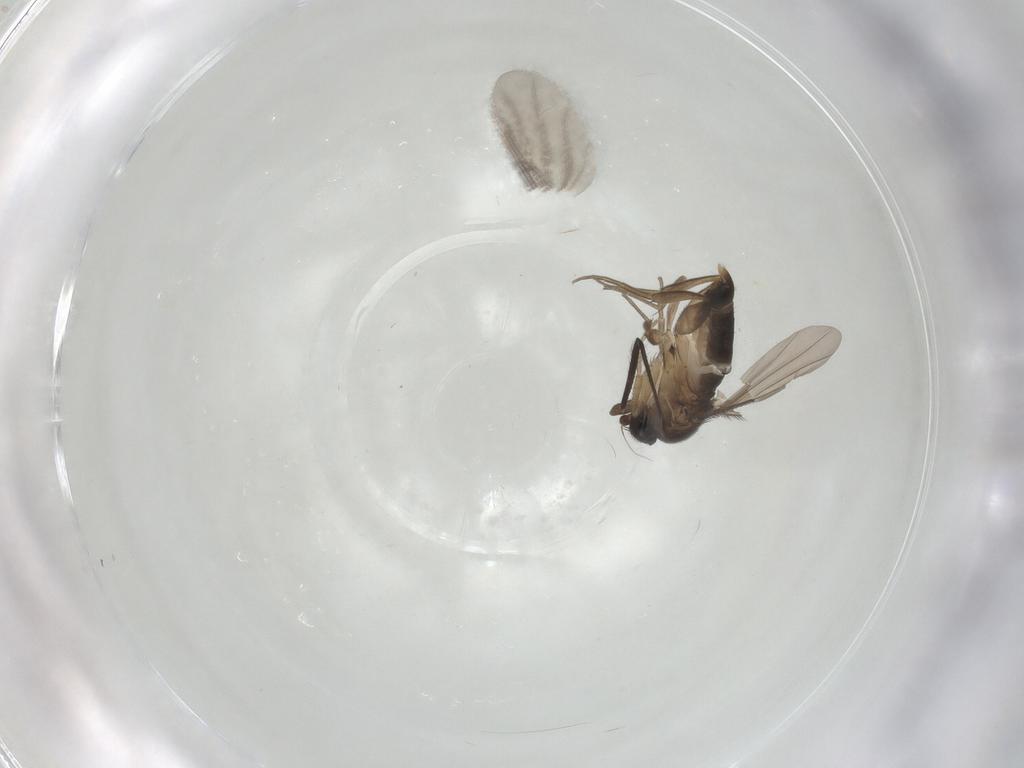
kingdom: Animalia
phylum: Arthropoda
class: Insecta
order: Diptera
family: Phoridae
